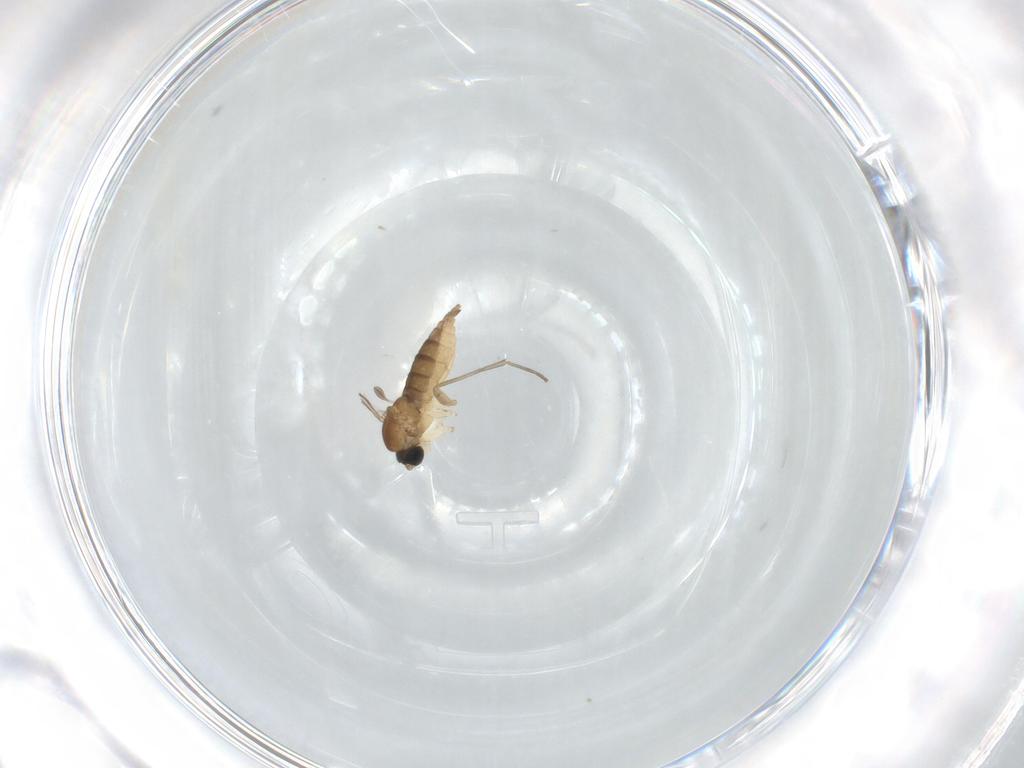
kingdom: Animalia
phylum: Arthropoda
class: Insecta
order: Diptera
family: Sciaridae
